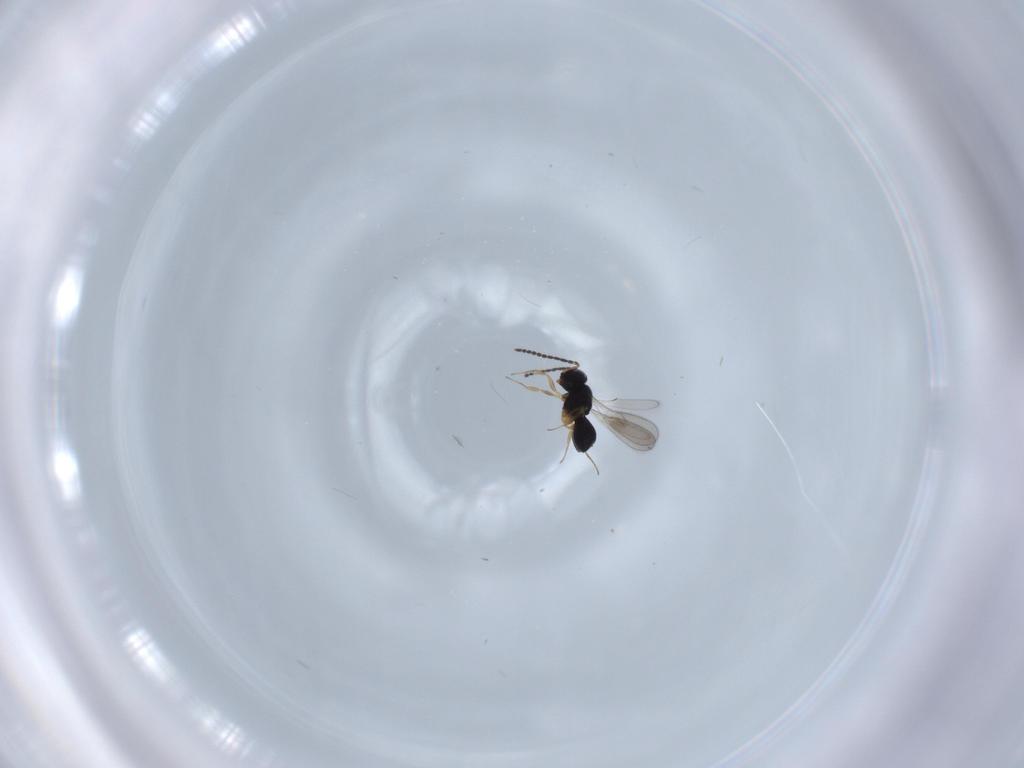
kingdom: Animalia
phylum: Arthropoda
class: Insecta
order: Hymenoptera
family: Scelionidae
